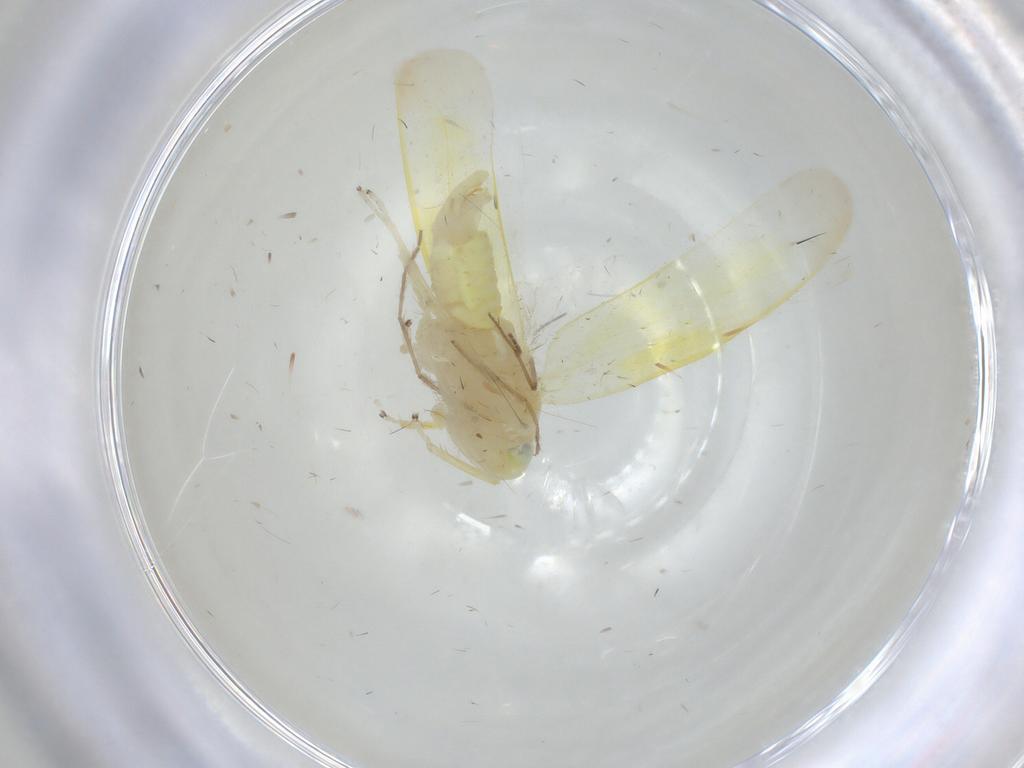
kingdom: Animalia
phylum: Arthropoda
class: Insecta
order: Hemiptera
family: Cicadellidae
